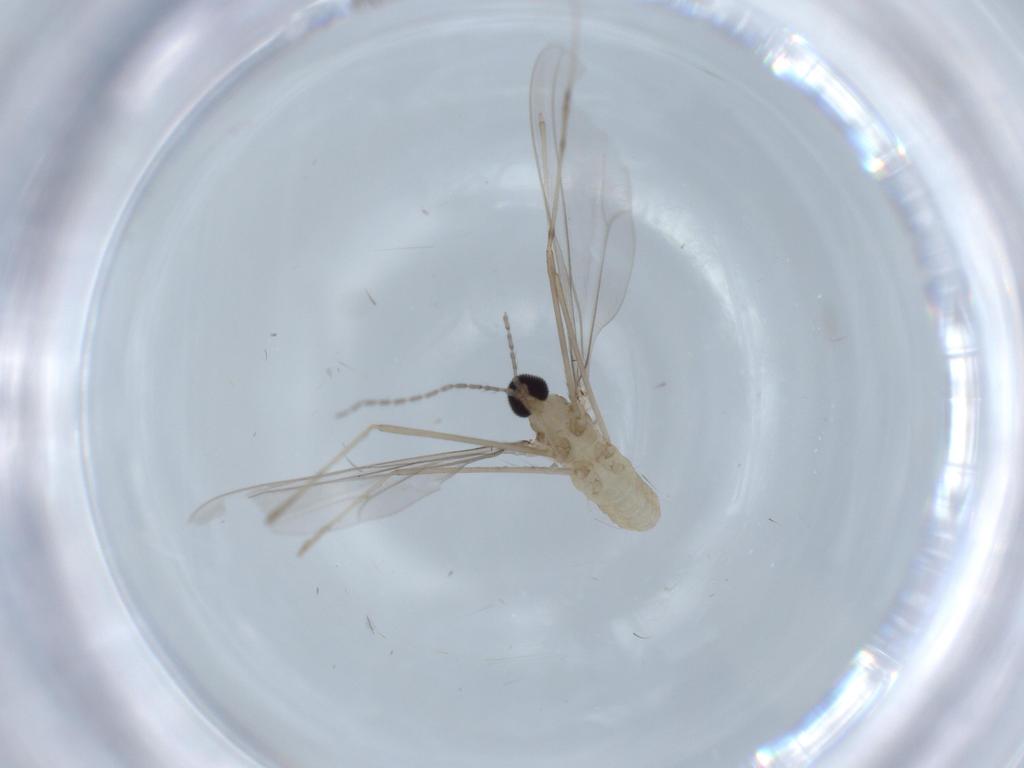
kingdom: Animalia
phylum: Arthropoda
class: Insecta
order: Diptera
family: Cecidomyiidae
